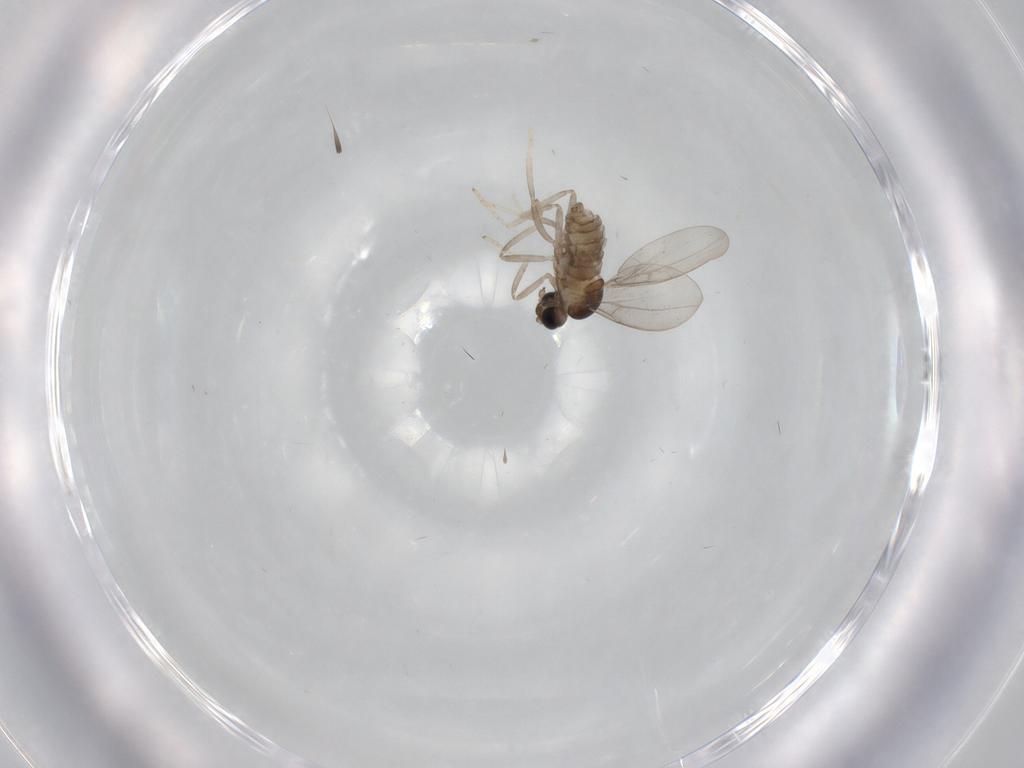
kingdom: Animalia
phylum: Arthropoda
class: Insecta
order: Diptera
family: Cecidomyiidae
